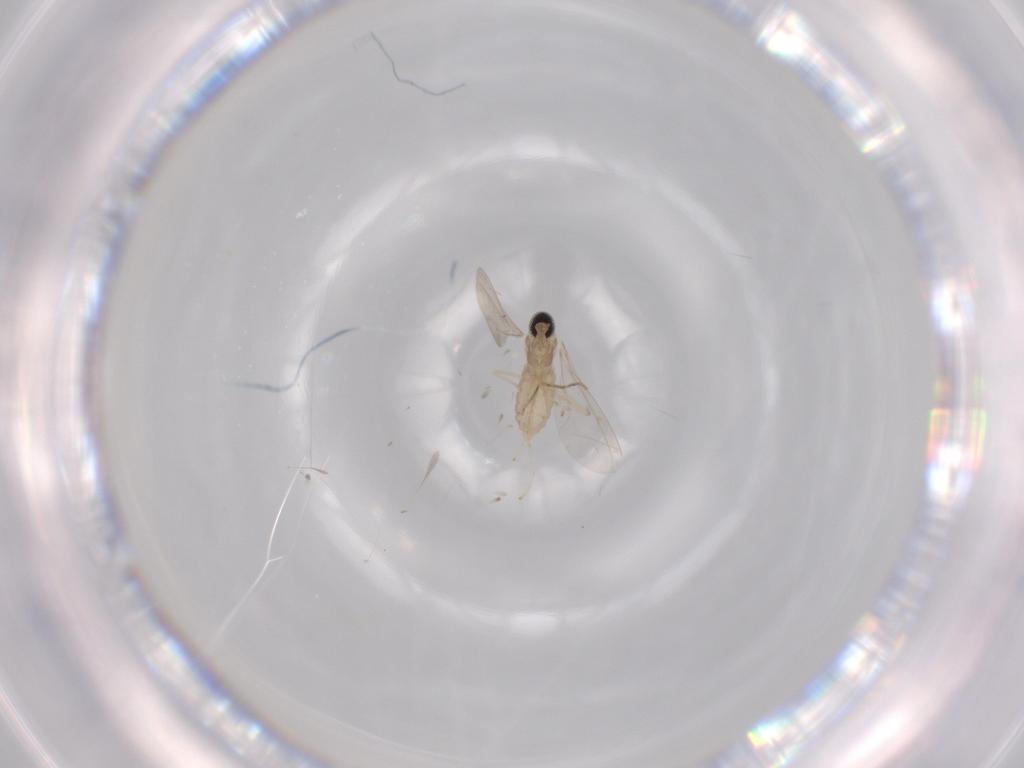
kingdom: Animalia
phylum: Arthropoda
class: Insecta
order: Diptera
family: Cecidomyiidae
